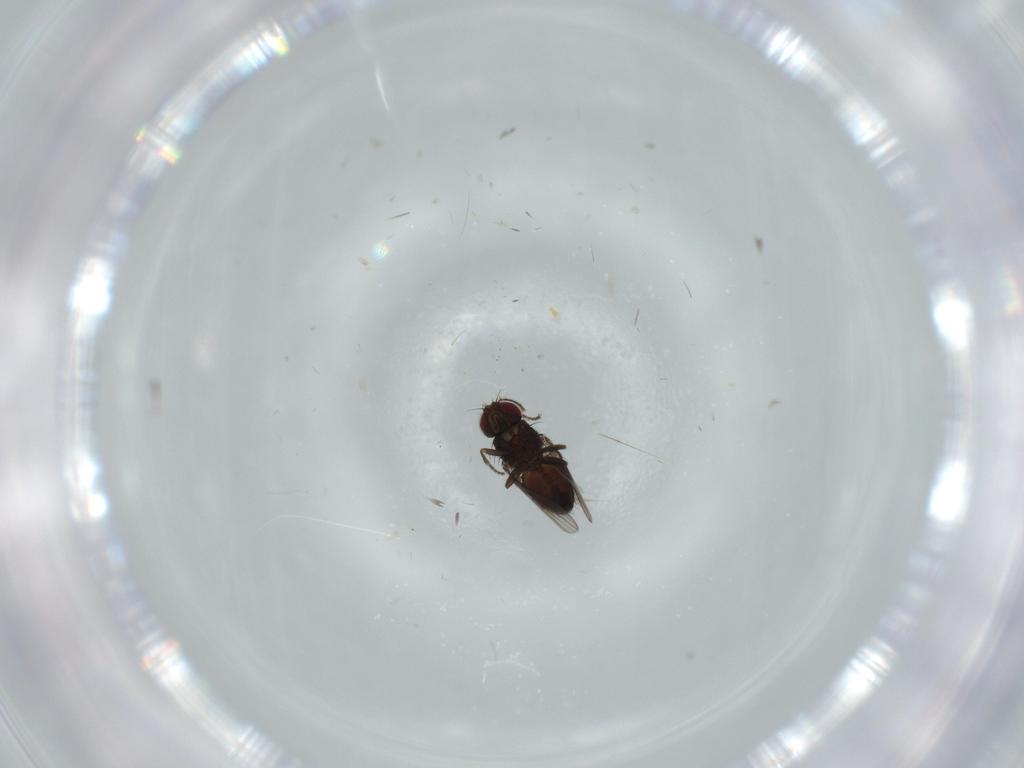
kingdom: Animalia
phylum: Arthropoda
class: Insecta
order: Diptera
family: Carnidae
